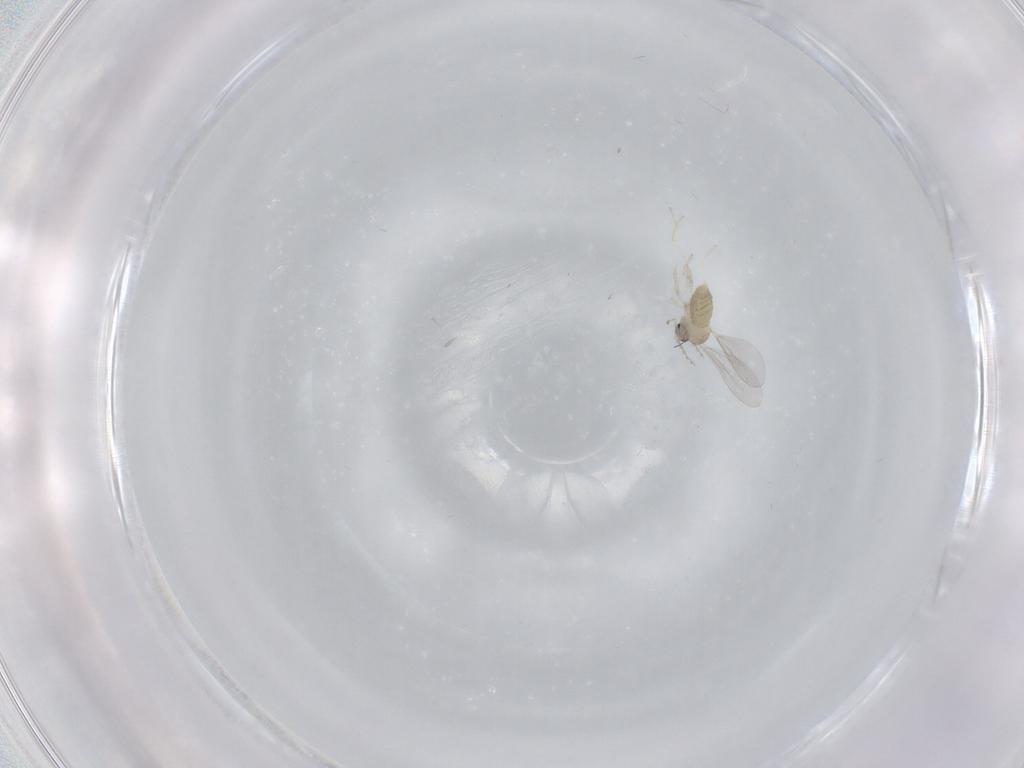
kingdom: Animalia
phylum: Arthropoda
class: Insecta
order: Diptera
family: Cecidomyiidae
